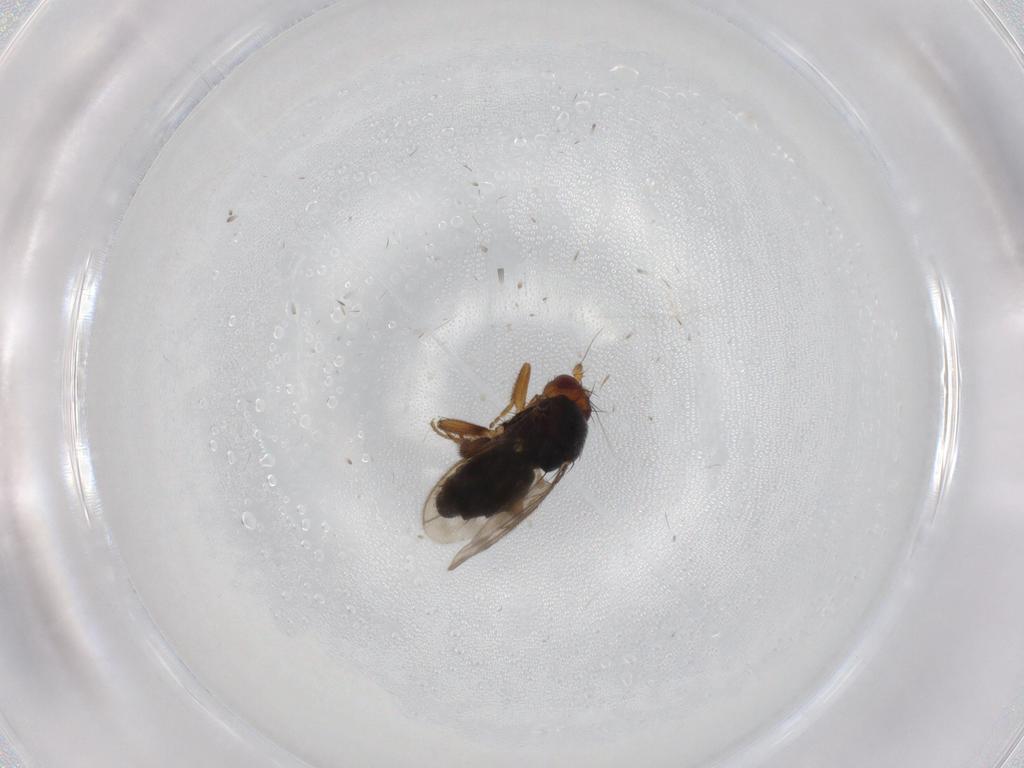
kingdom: Animalia
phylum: Arthropoda
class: Insecta
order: Diptera
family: Sphaeroceridae
